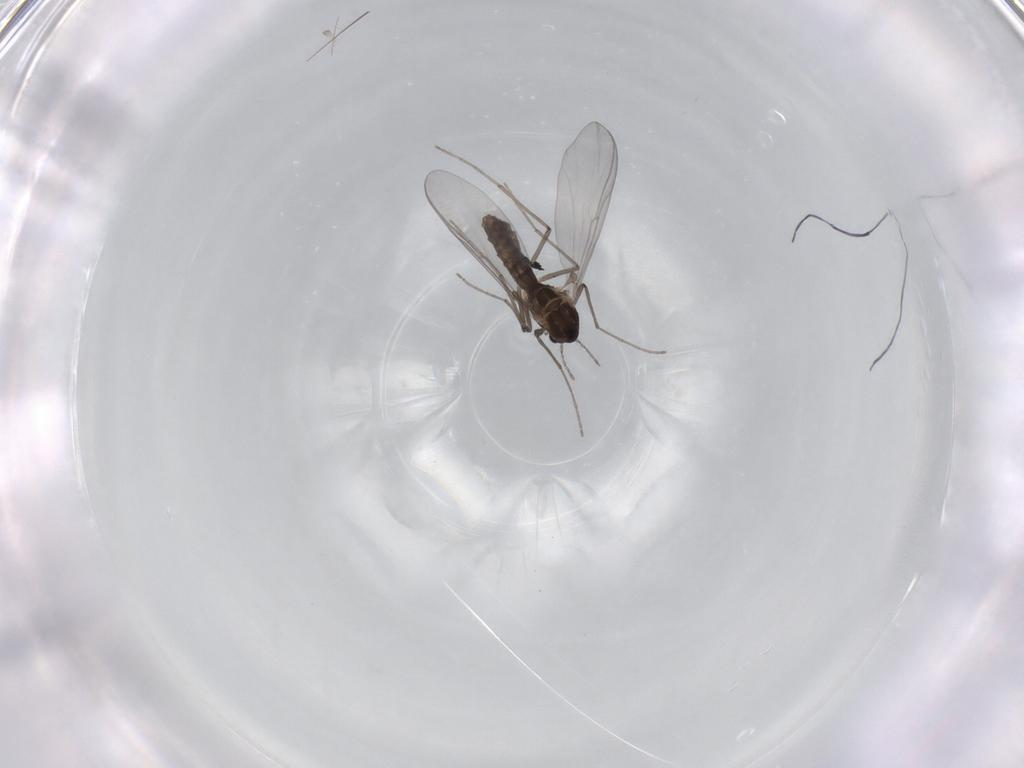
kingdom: Animalia
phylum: Arthropoda
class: Insecta
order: Diptera
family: Chironomidae
